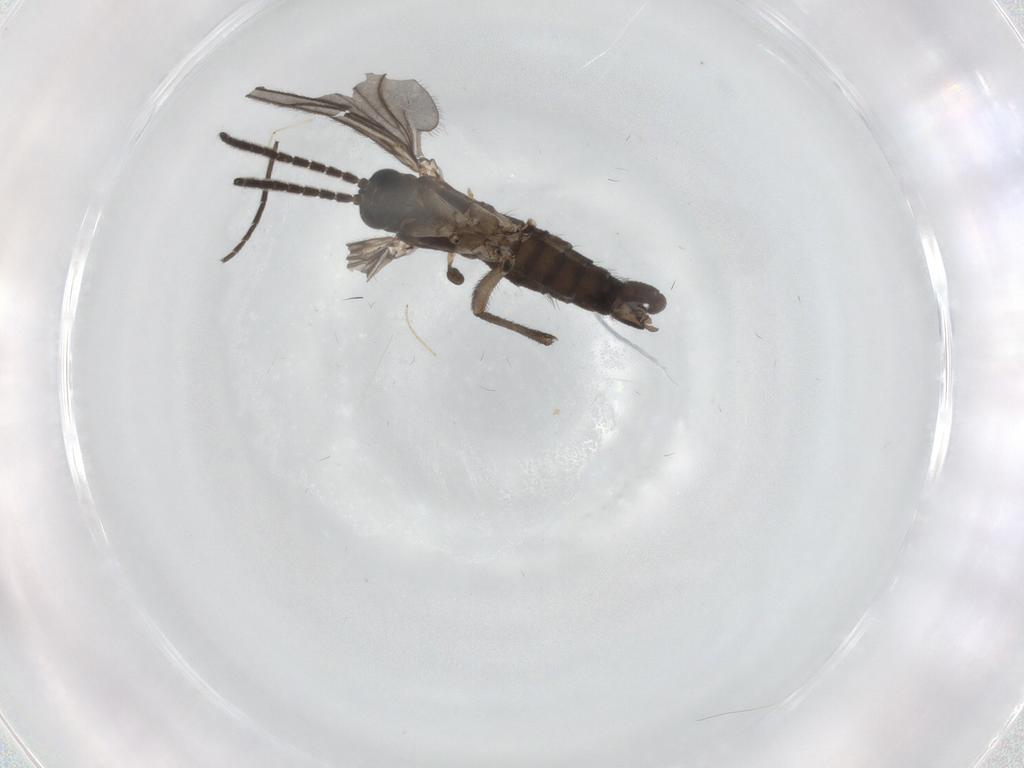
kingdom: Animalia
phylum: Arthropoda
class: Insecta
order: Diptera
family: Sciaridae
